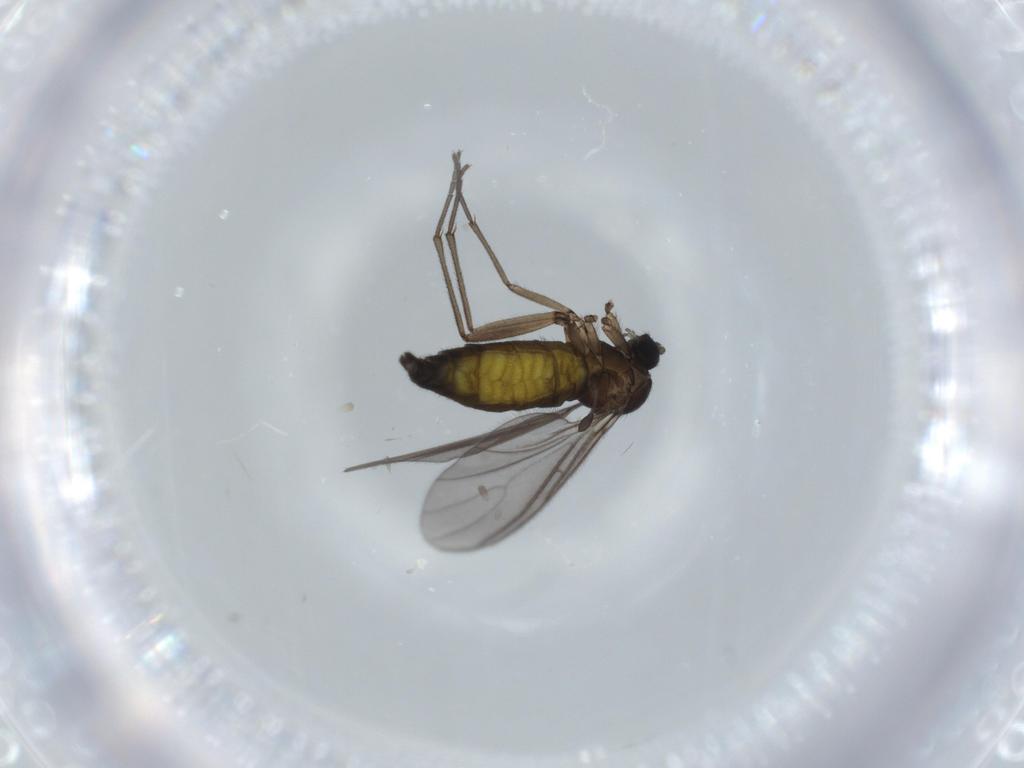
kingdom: Animalia
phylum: Arthropoda
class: Insecta
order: Diptera
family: Sciaridae
